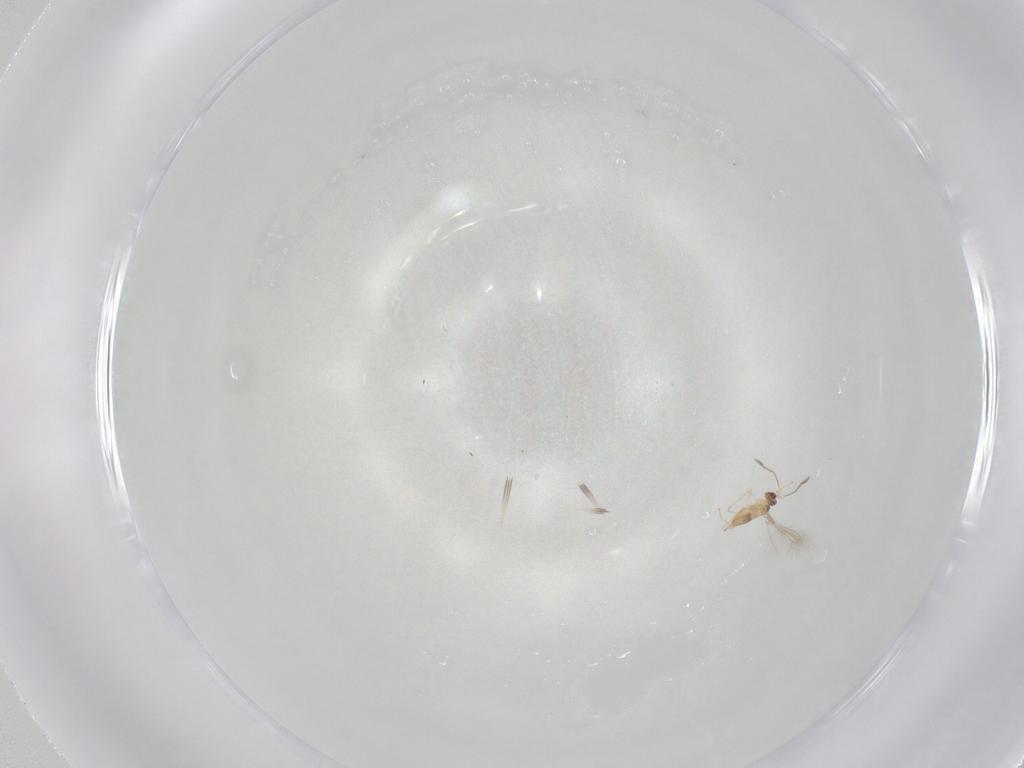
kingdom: Animalia
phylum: Arthropoda
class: Insecta
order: Hymenoptera
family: Mymaridae
